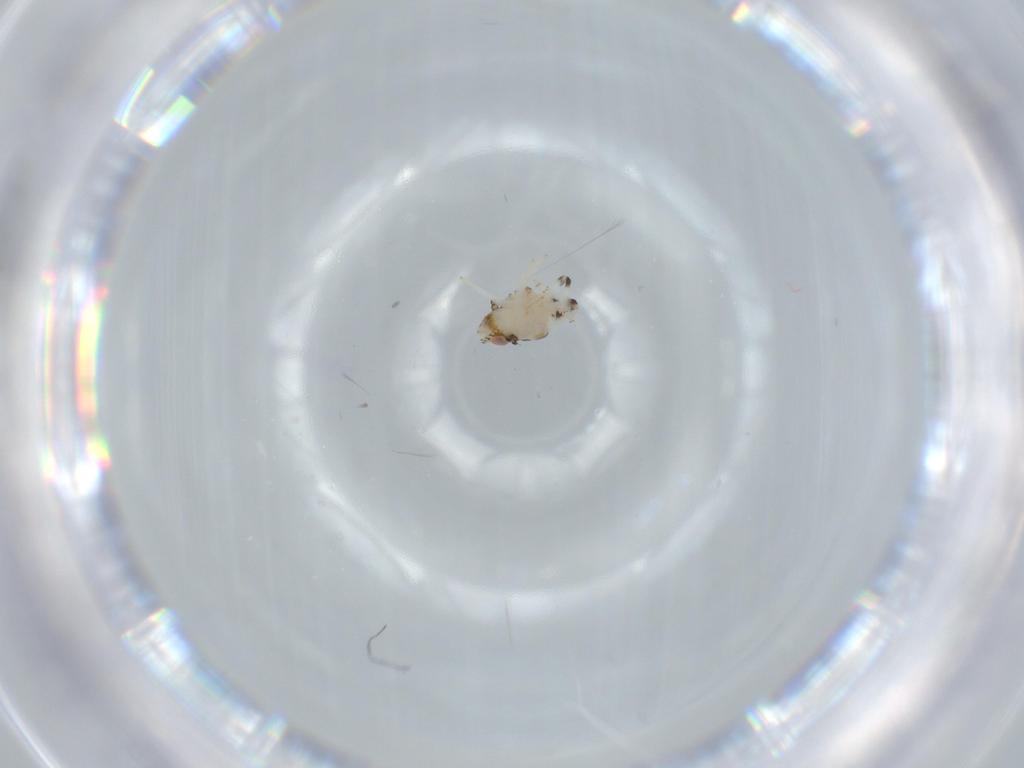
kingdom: Animalia
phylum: Arthropoda
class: Insecta
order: Hemiptera
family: Nogodinidae
